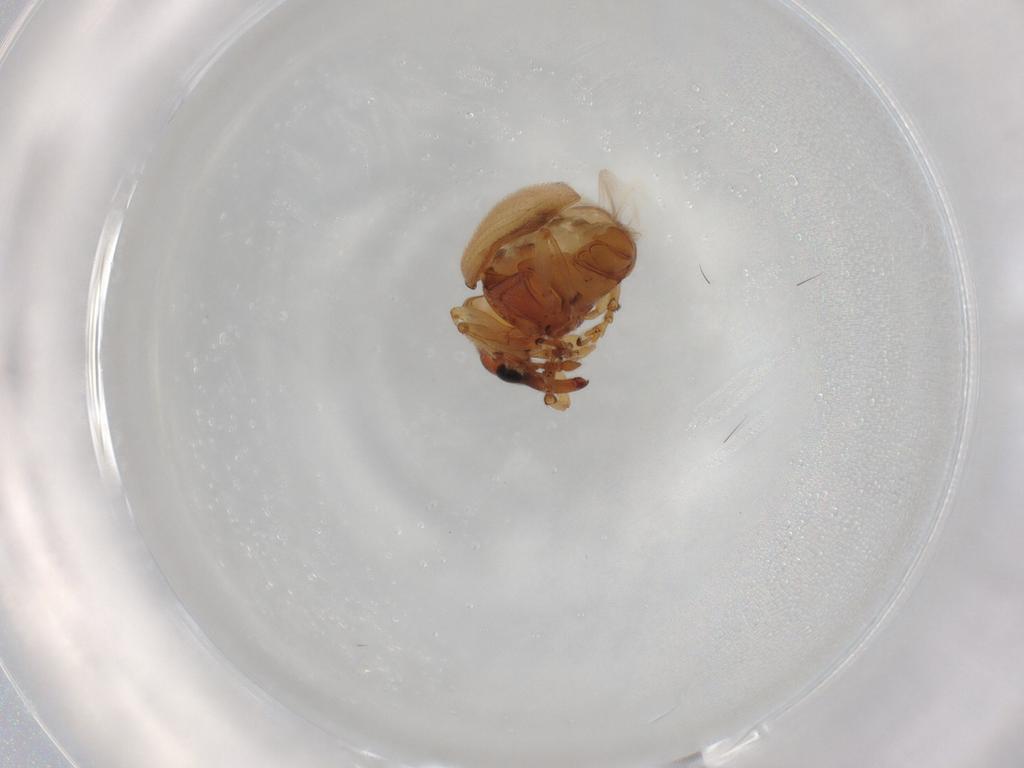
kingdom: Animalia
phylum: Arthropoda
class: Insecta
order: Coleoptera
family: Brentidae
